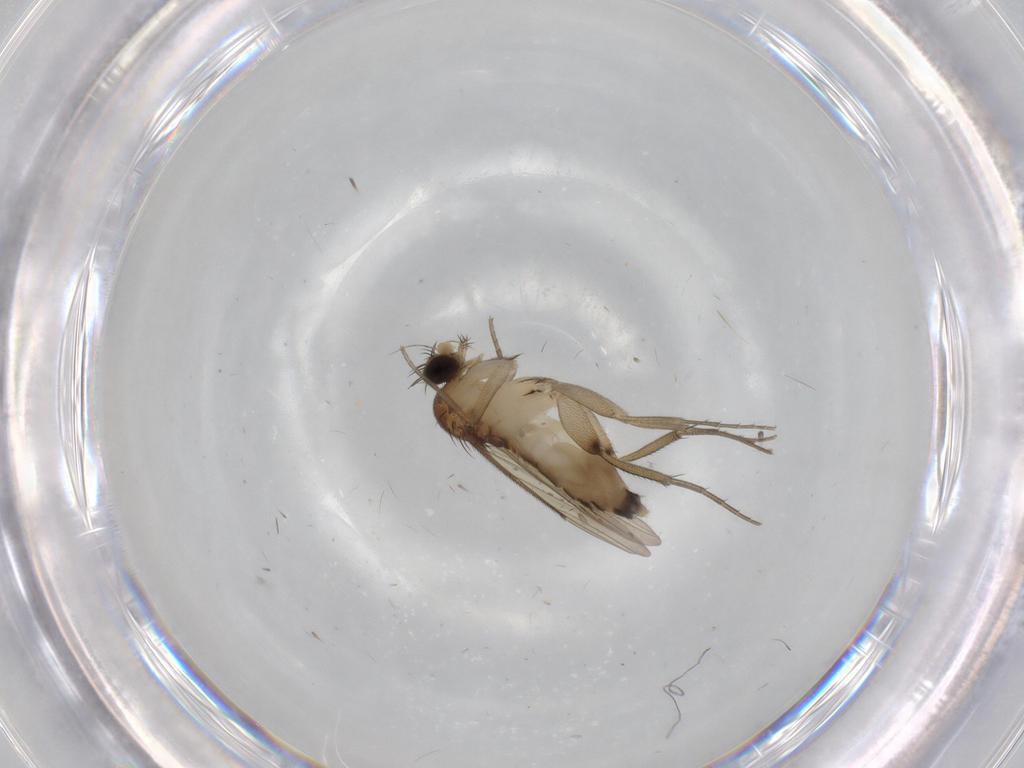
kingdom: Animalia
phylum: Arthropoda
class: Insecta
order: Diptera
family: Phoridae
